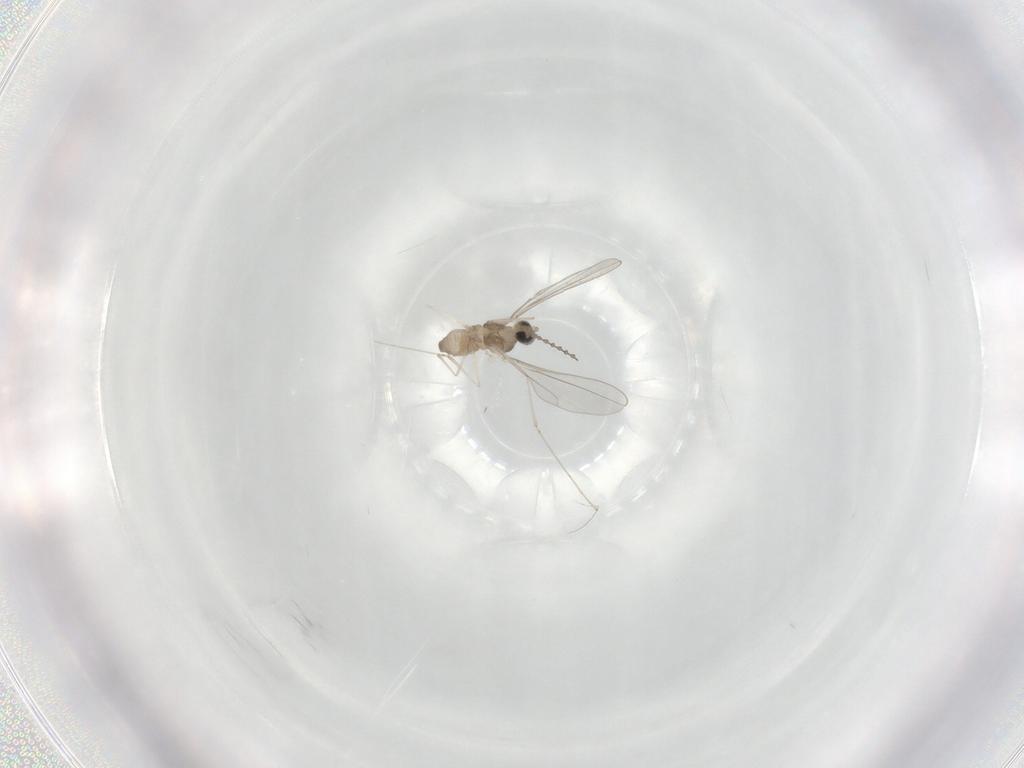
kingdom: Animalia
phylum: Arthropoda
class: Insecta
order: Diptera
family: Cecidomyiidae
